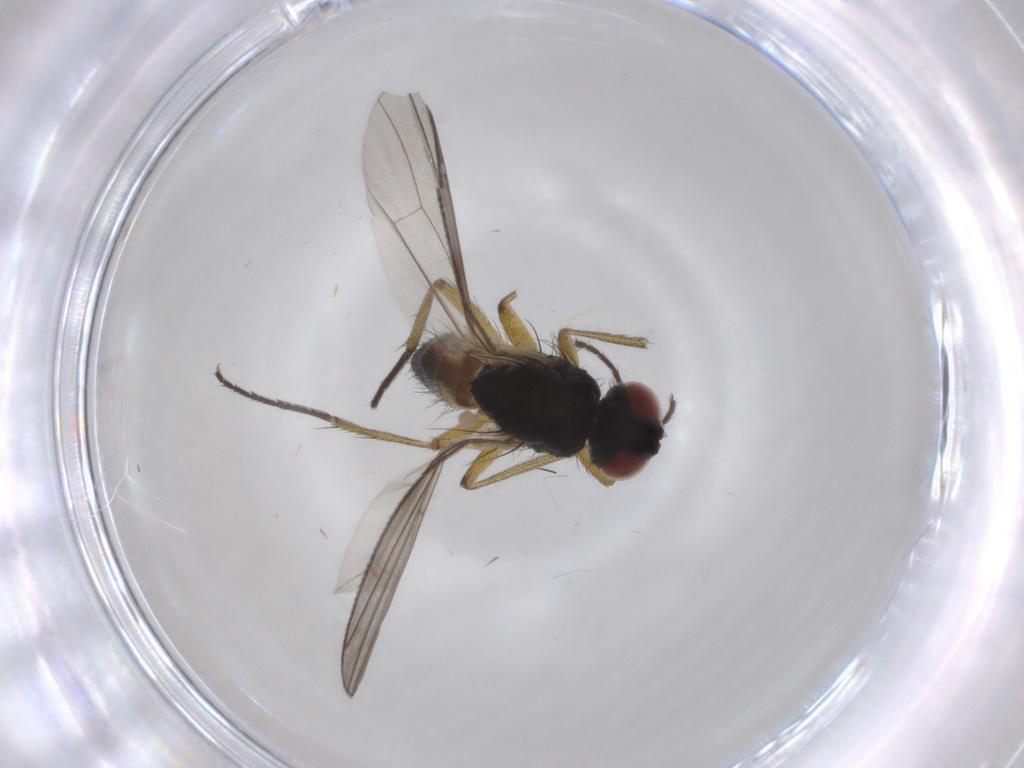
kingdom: Animalia
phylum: Arthropoda
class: Insecta
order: Diptera
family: Muscidae
